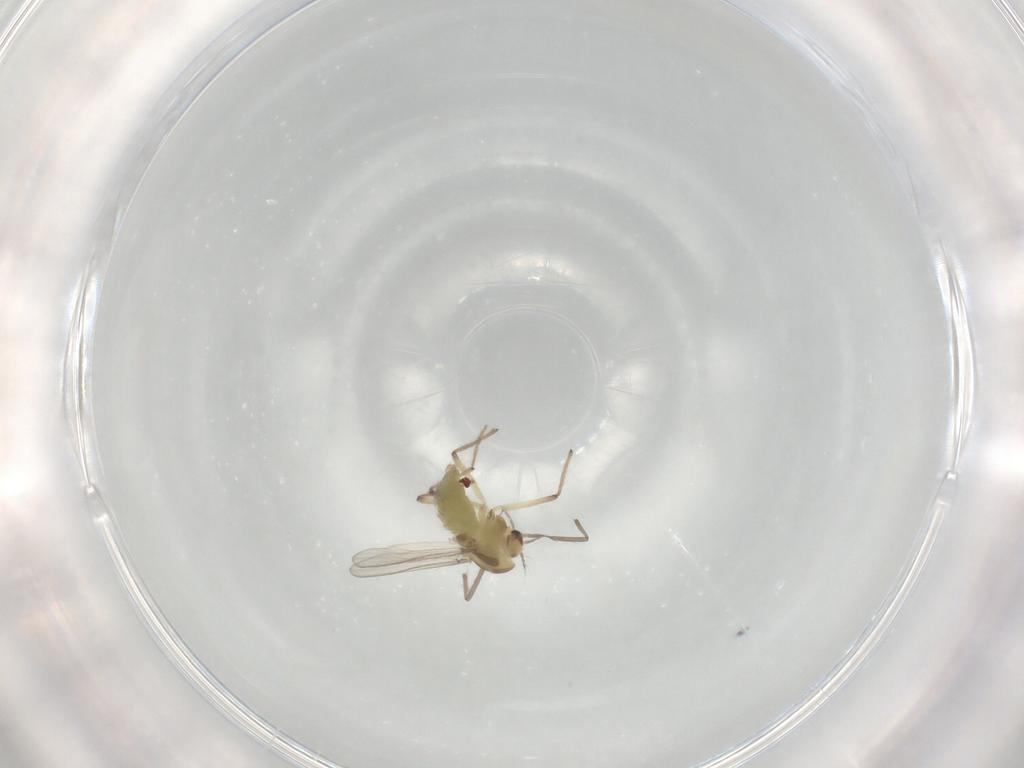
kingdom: Animalia
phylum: Arthropoda
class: Insecta
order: Diptera
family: Chironomidae
